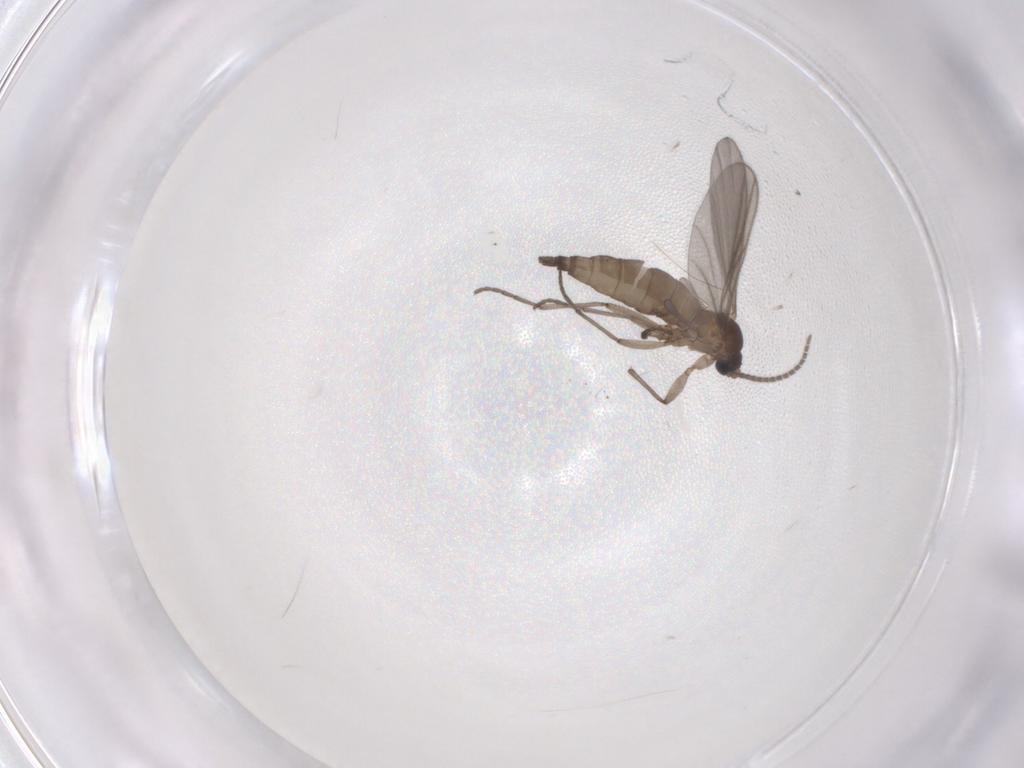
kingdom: Animalia
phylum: Arthropoda
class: Insecta
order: Diptera
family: Sciaridae
